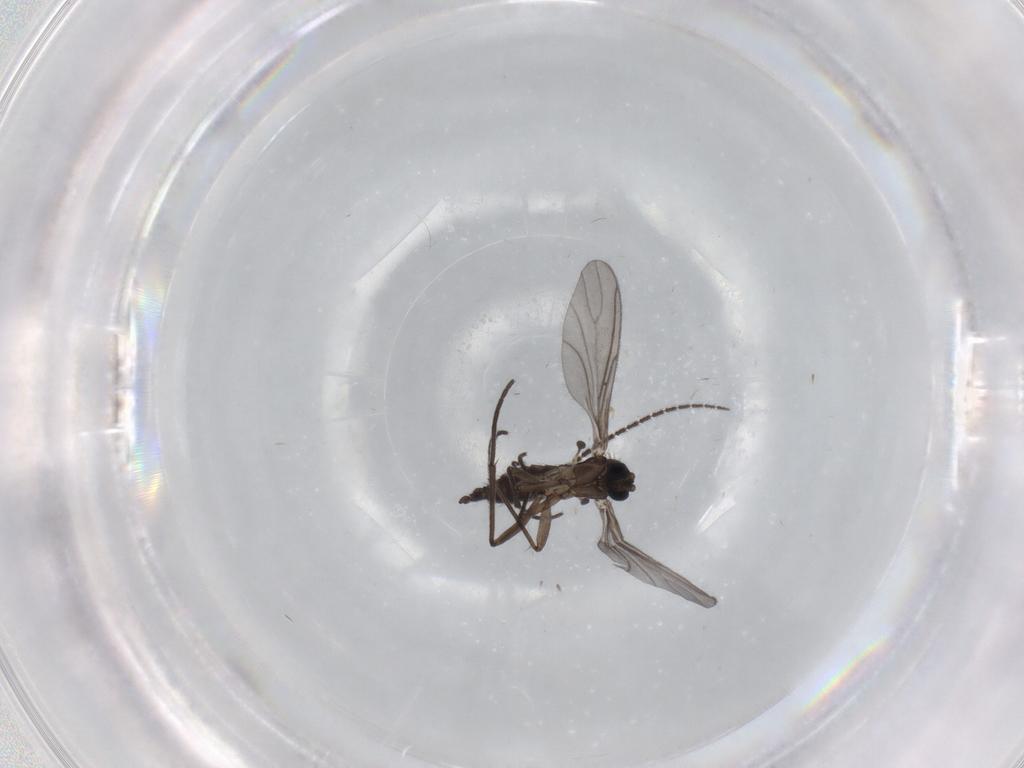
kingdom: Animalia
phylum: Arthropoda
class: Insecta
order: Diptera
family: Sciaridae
